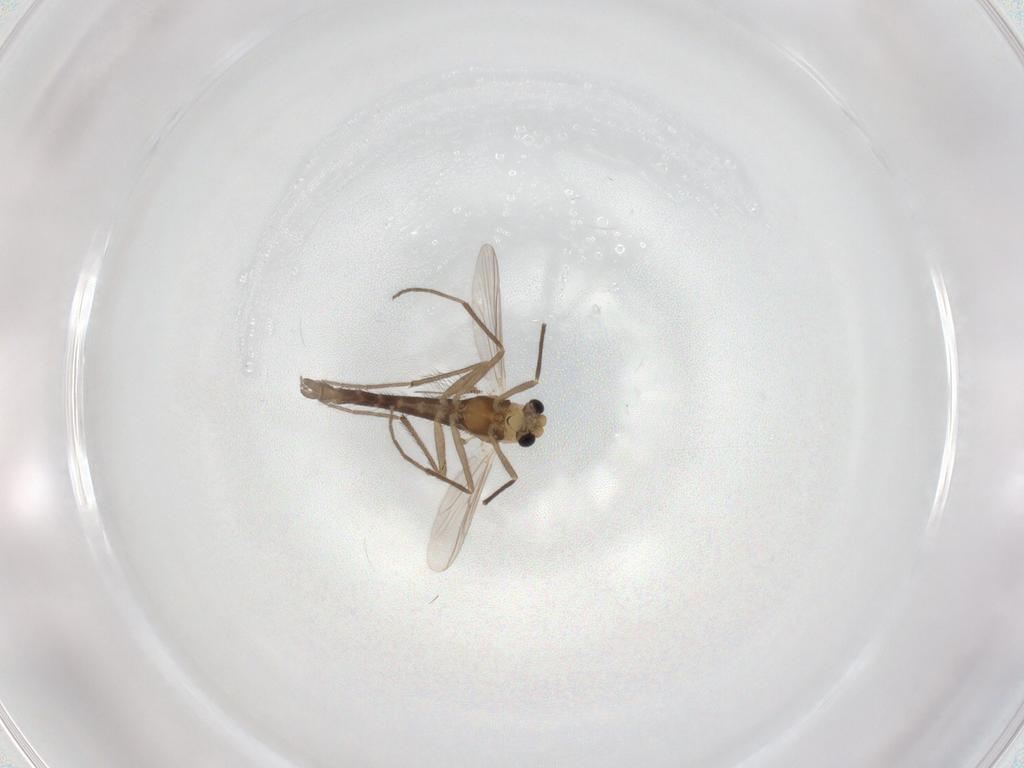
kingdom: Animalia
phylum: Arthropoda
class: Insecta
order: Diptera
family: Chironomidae
